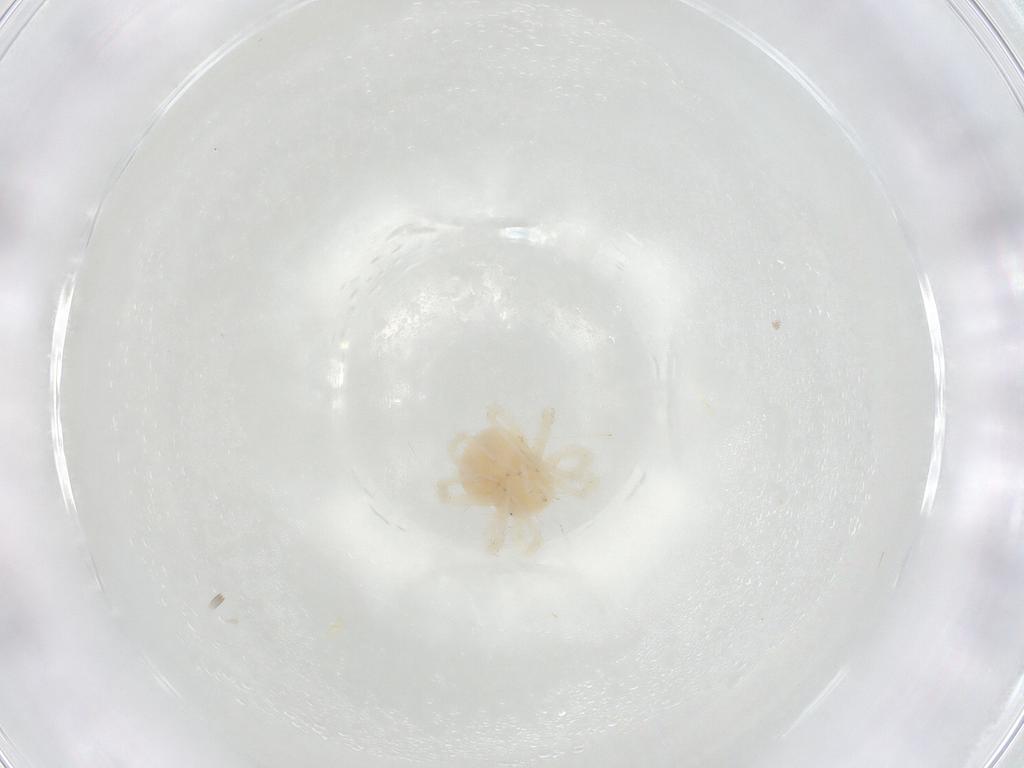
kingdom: Animalia
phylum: Arthropoda
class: Arachnida
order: Trombidiformes
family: Anystidae
